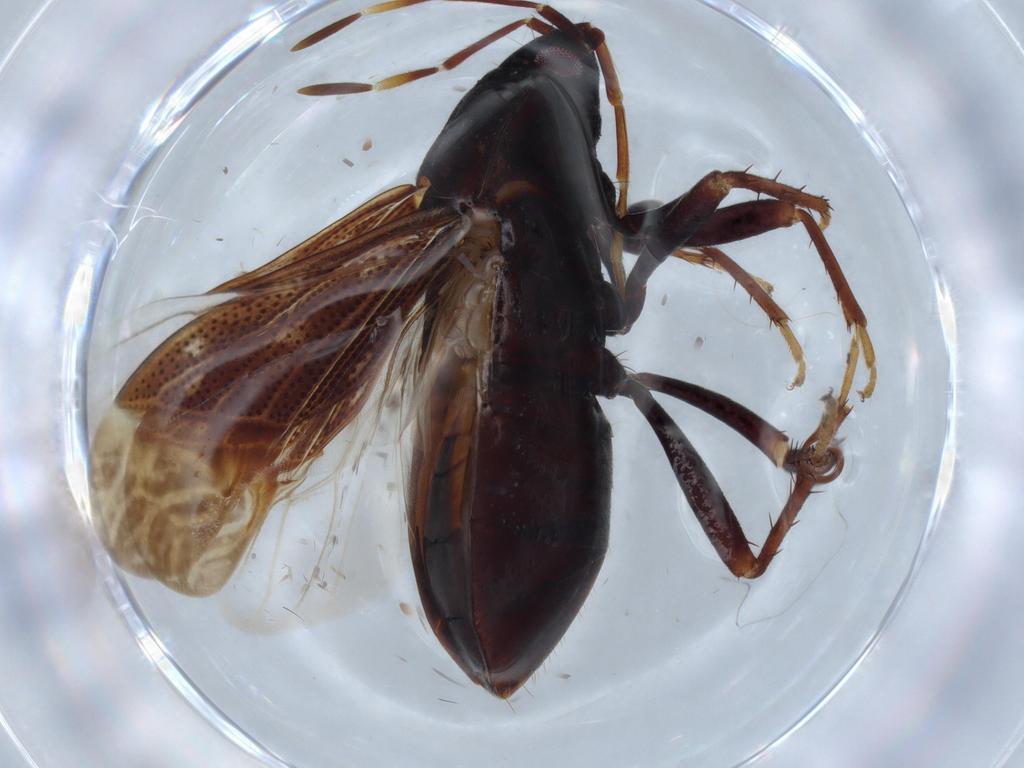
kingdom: Animalia
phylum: Arthropoda
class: Insecta
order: Hemiptera
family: Rhyparochromidae
